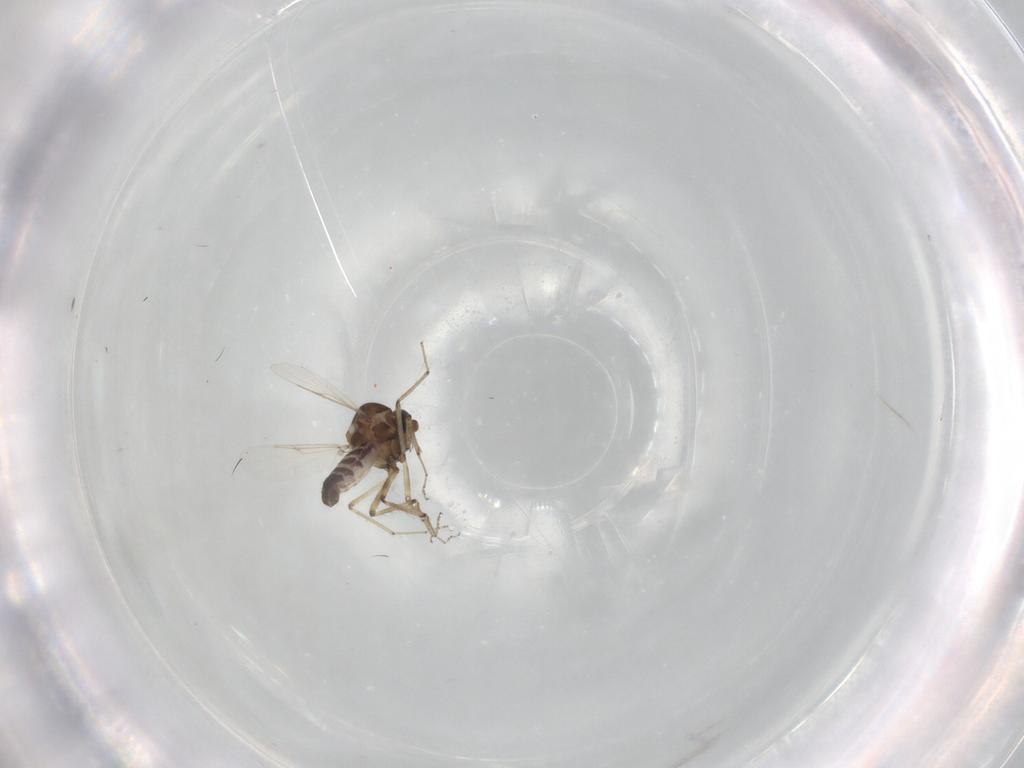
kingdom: Animalia
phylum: Arthropoda
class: Insecta
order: Diptera
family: Ceratopogonidae
